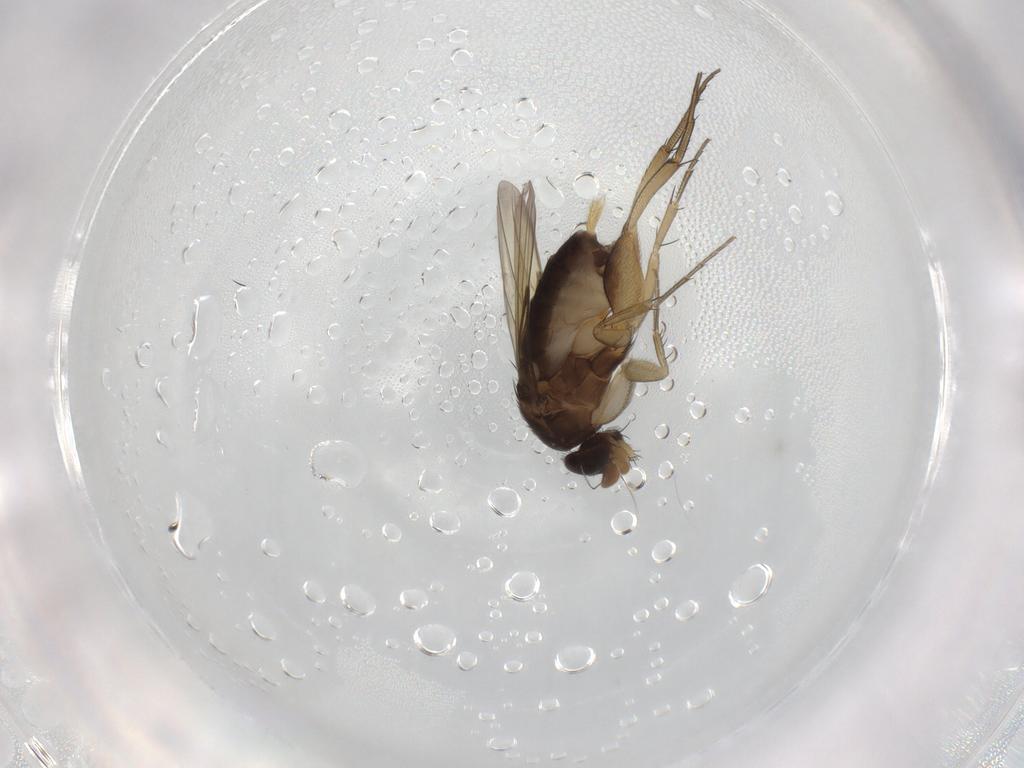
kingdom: Animalia
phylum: Arthropoda
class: Insecta
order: Diptera
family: Phoridae
